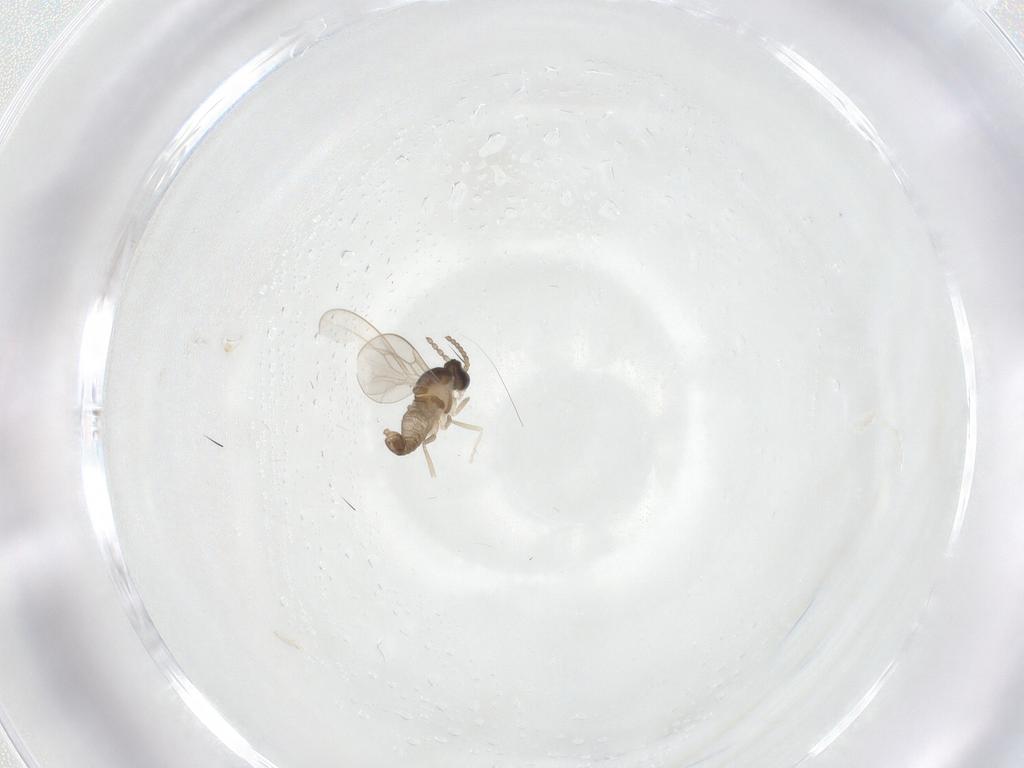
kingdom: Animalia
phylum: Arthropoda
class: Insecta
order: Diptera
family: Cecidomyiidae
